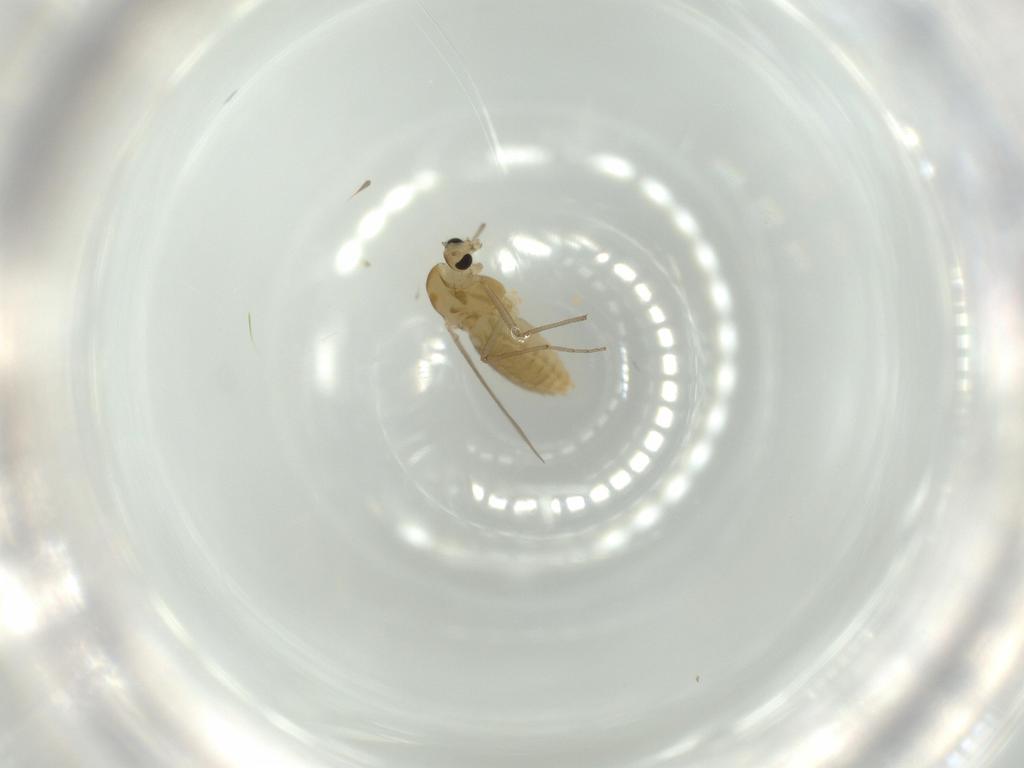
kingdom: Animalia
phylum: Arthropoda
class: Insecta
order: Diptera
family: Chironomidae
